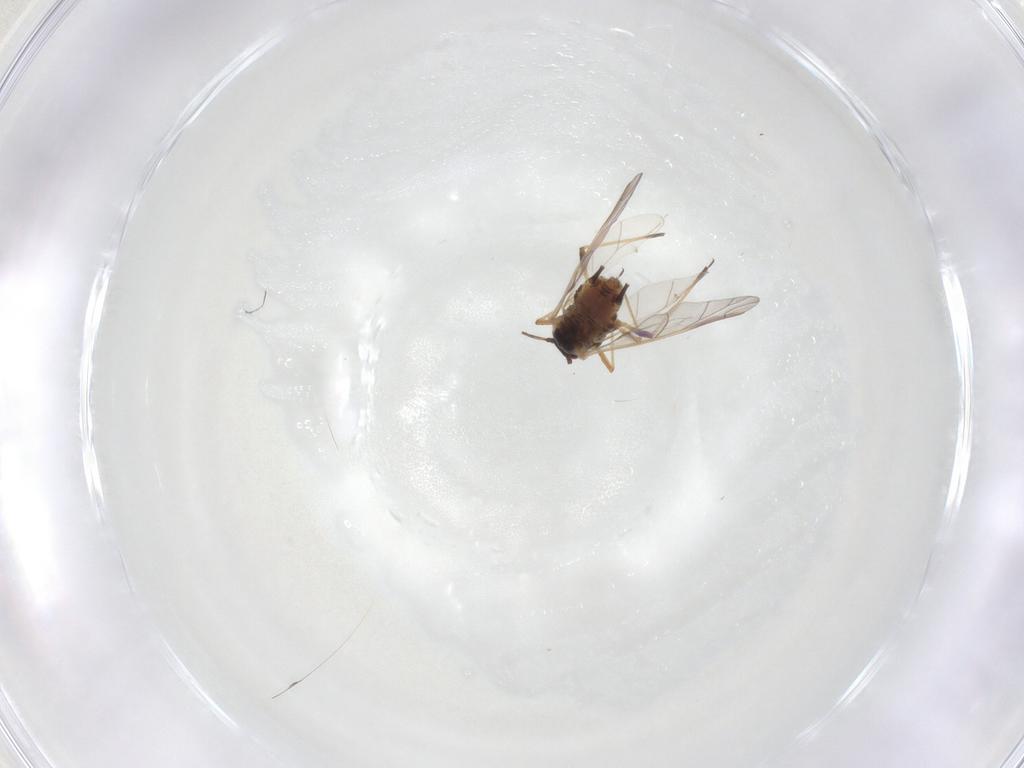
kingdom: Animalia
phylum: Arthropoda
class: Insecta
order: Hemiptera
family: Aphididae
